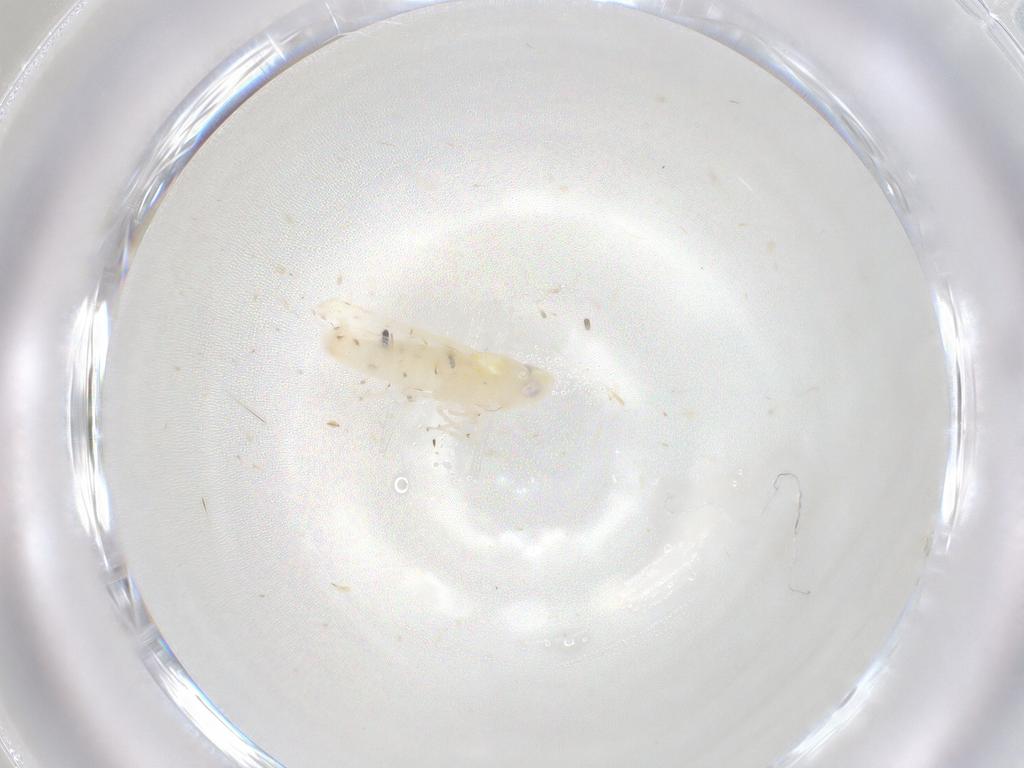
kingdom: Animalia
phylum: Arthropoda
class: Insecta
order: Hemiptera
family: Cicadellidae
